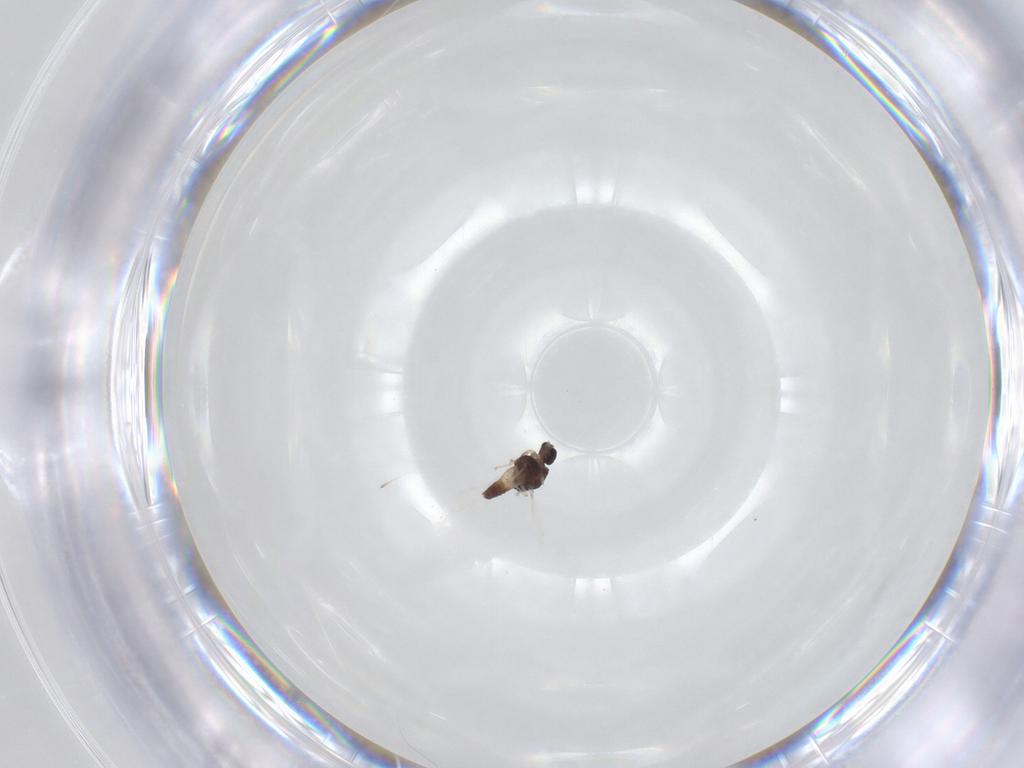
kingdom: Animalia
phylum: Arthropoda
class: Insecta
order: Diptera
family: Chironomidae
